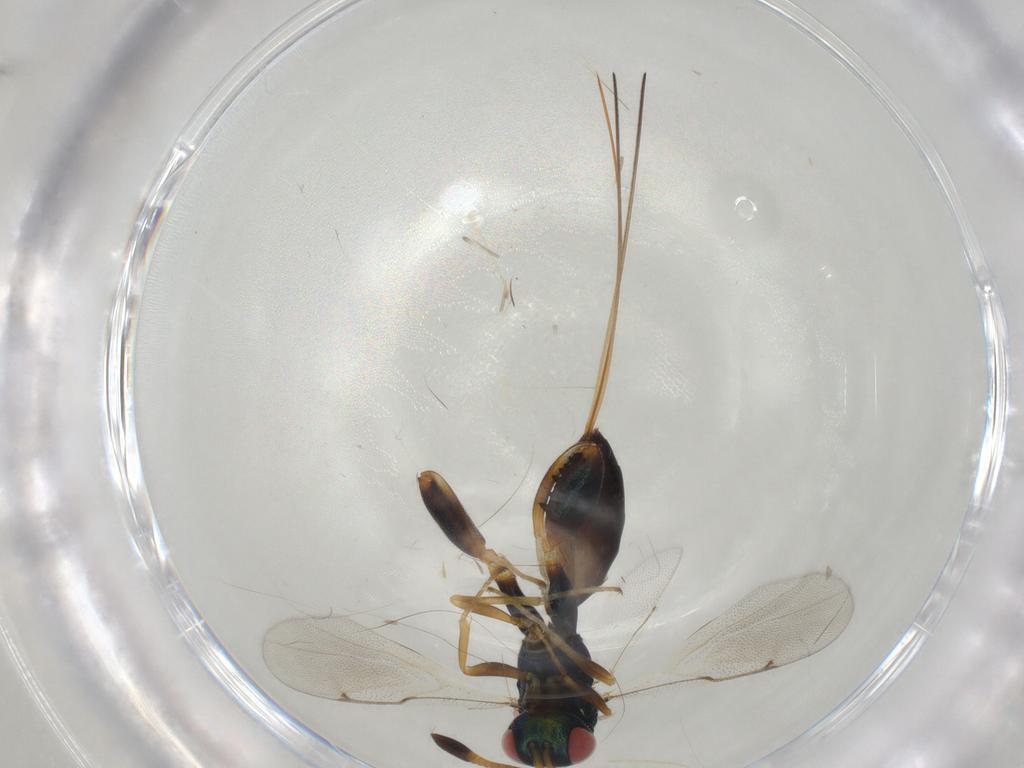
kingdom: Animalia
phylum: Arthropoda
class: Insecta
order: Hymenoptera
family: Torymidae
